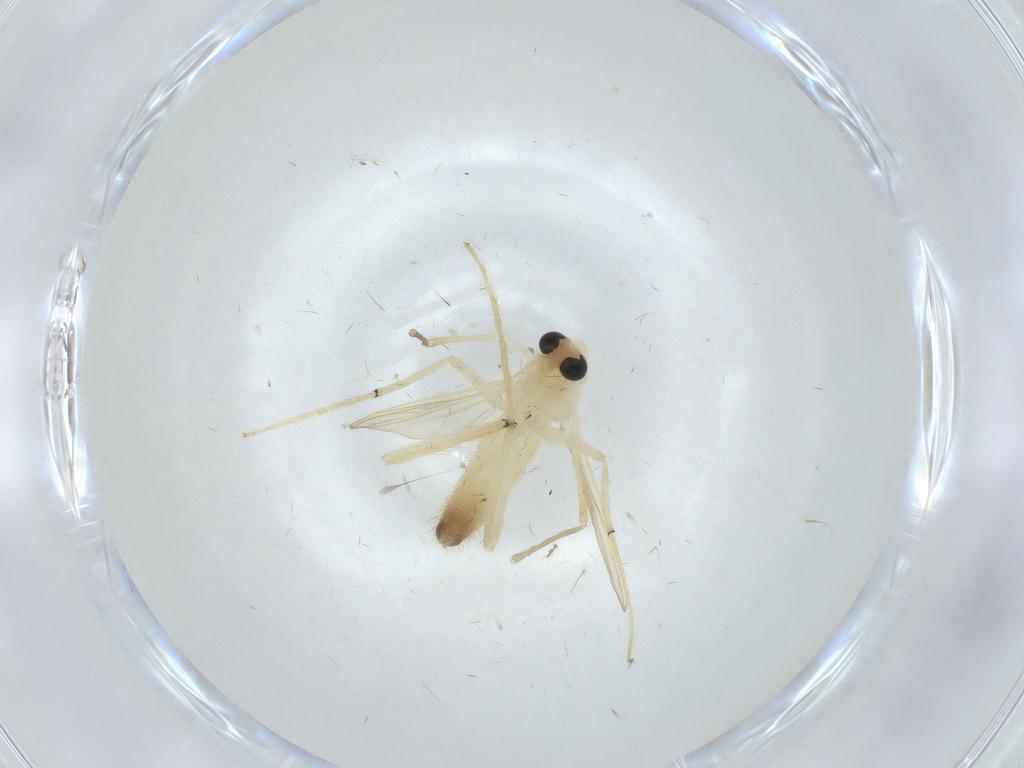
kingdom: Animalia
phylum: Arthropoda
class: Insecta
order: Diptera
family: Chironomidae
